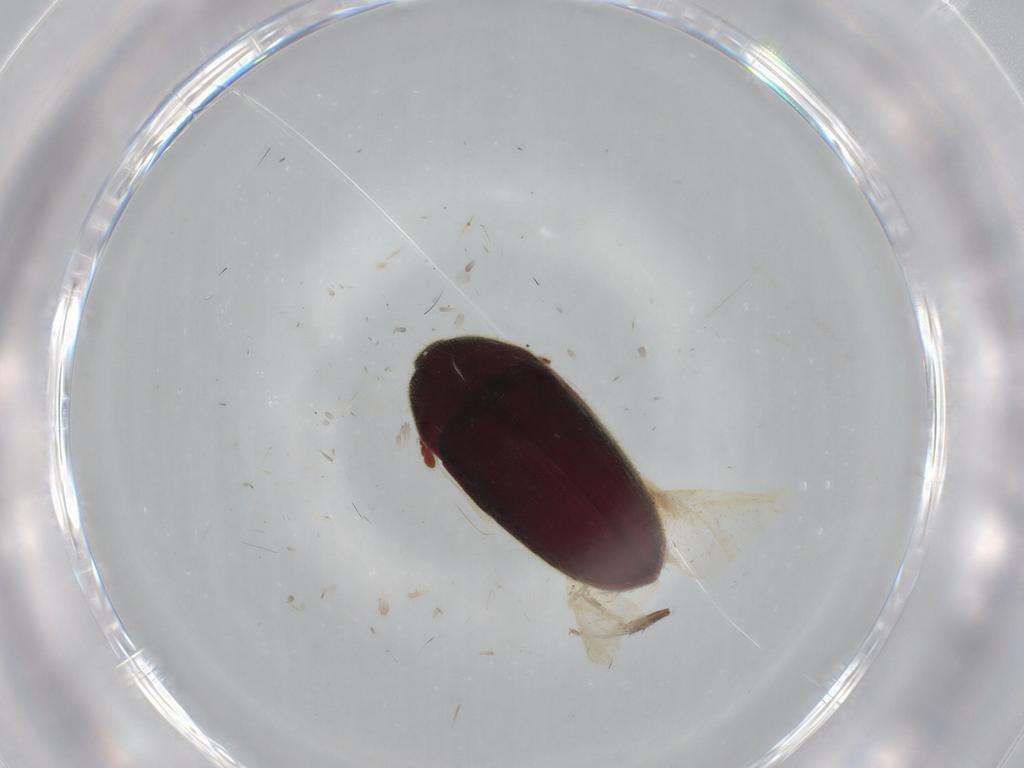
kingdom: Animalia
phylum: Arthropoda
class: Insecta
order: Coleoptera
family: Throscidae
